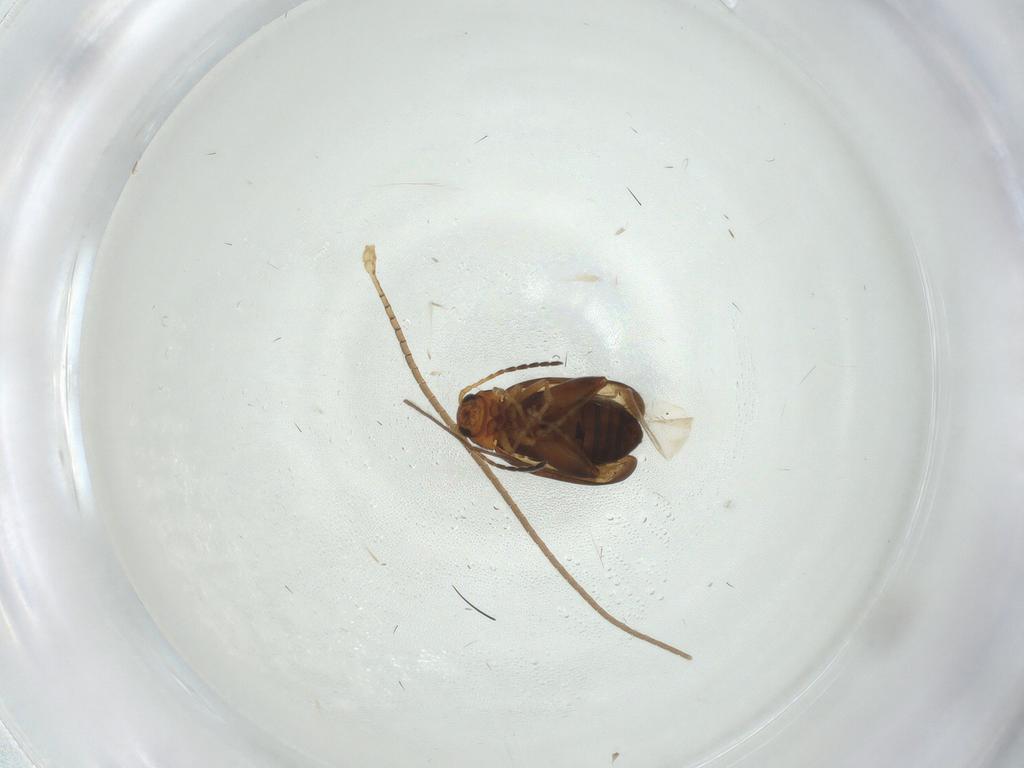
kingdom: Animalia
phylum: Arthropoda
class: Insecta
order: Coleoptera
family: Chrysomelidae
